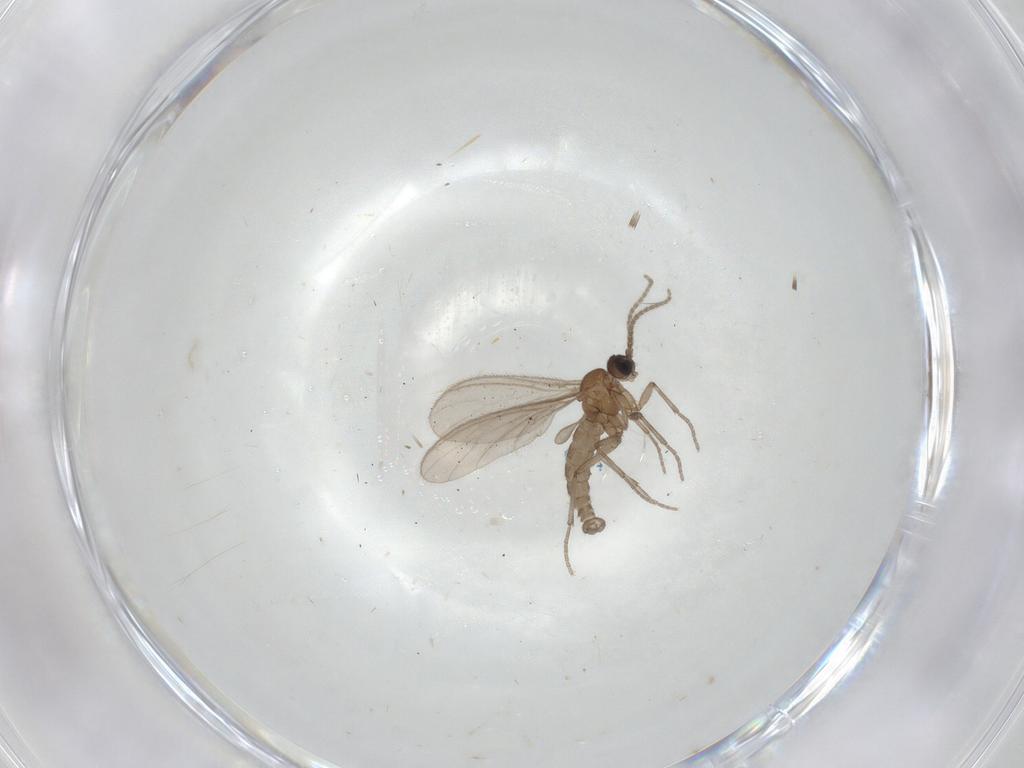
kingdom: Animalia
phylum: Arthropoda
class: Insecta
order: Diptera
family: Sciaridae
